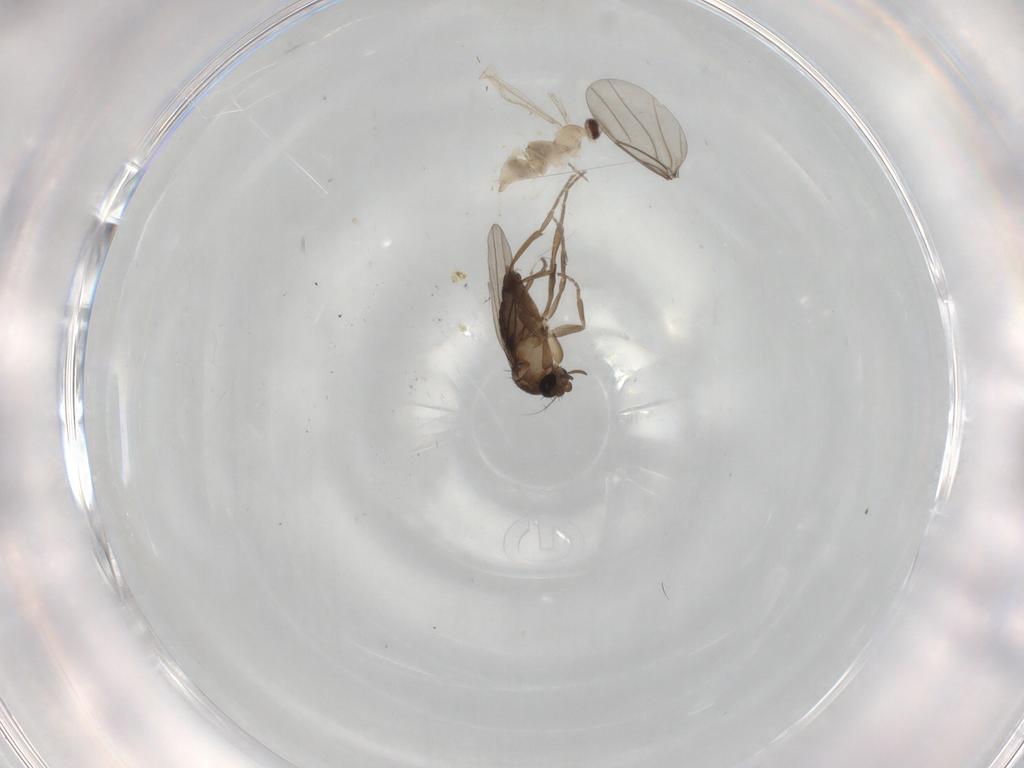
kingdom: Animalia
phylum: Arthropoda
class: Insecta
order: Diptera
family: Cecidomyiidae
